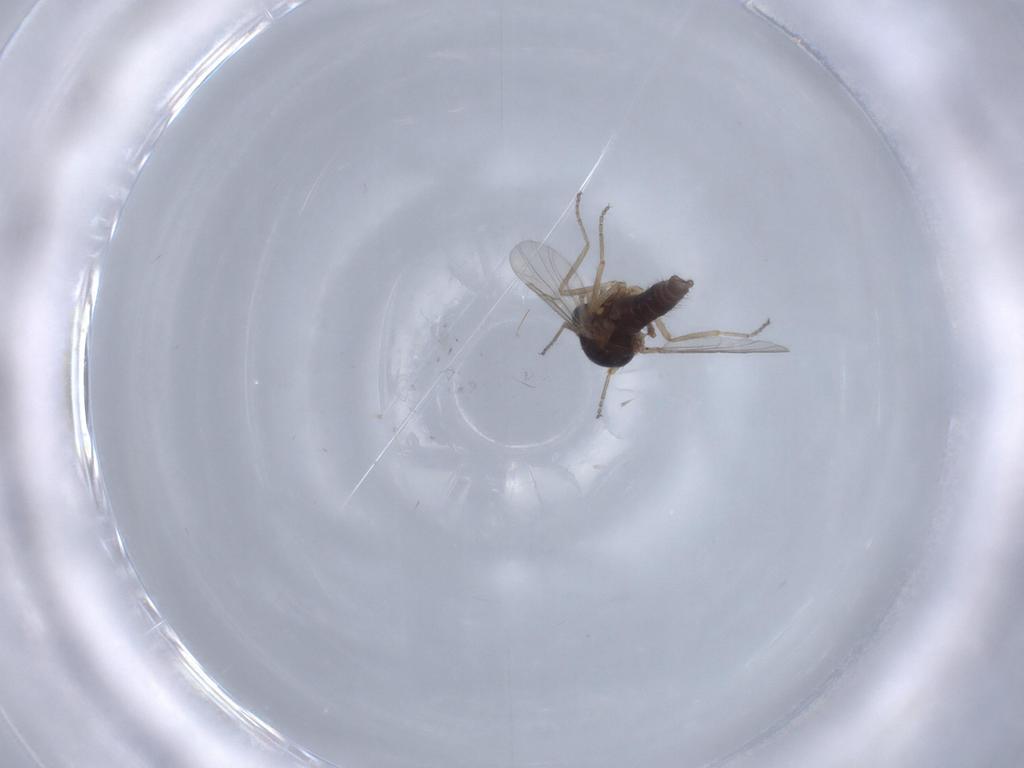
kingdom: Animalia
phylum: Arthropoda
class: Insecta
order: Diptera
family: Ceratopogonidae
